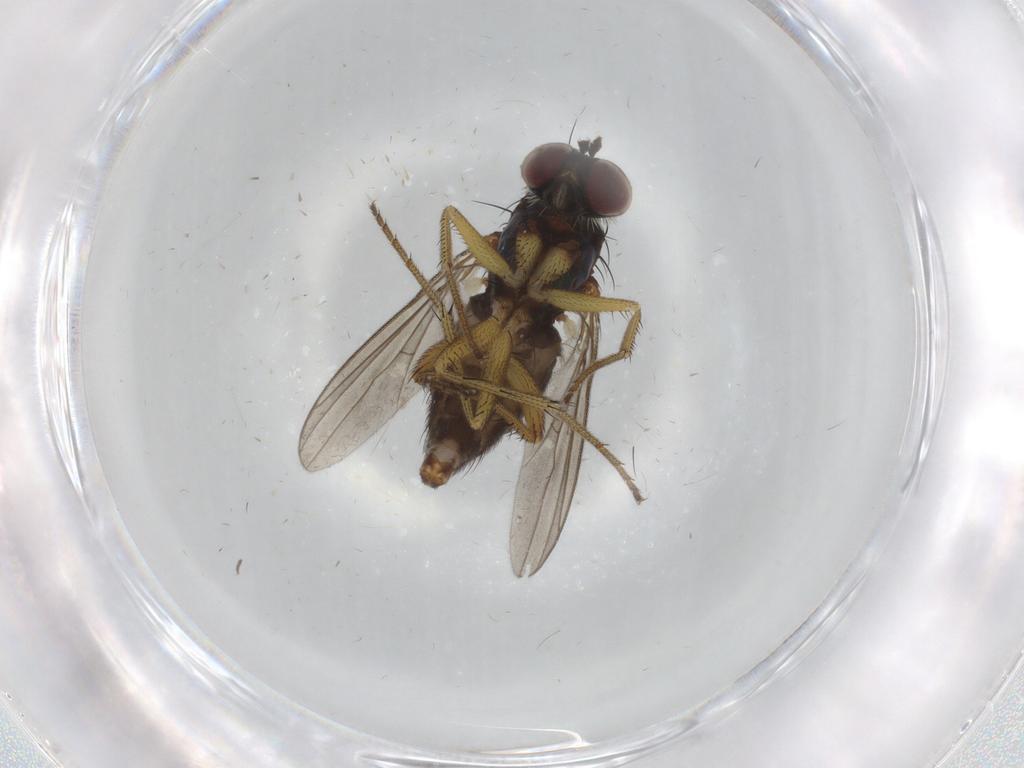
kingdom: Animalia
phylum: Arthropoda
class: Insecta
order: Diptera
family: Dolichopodidae
